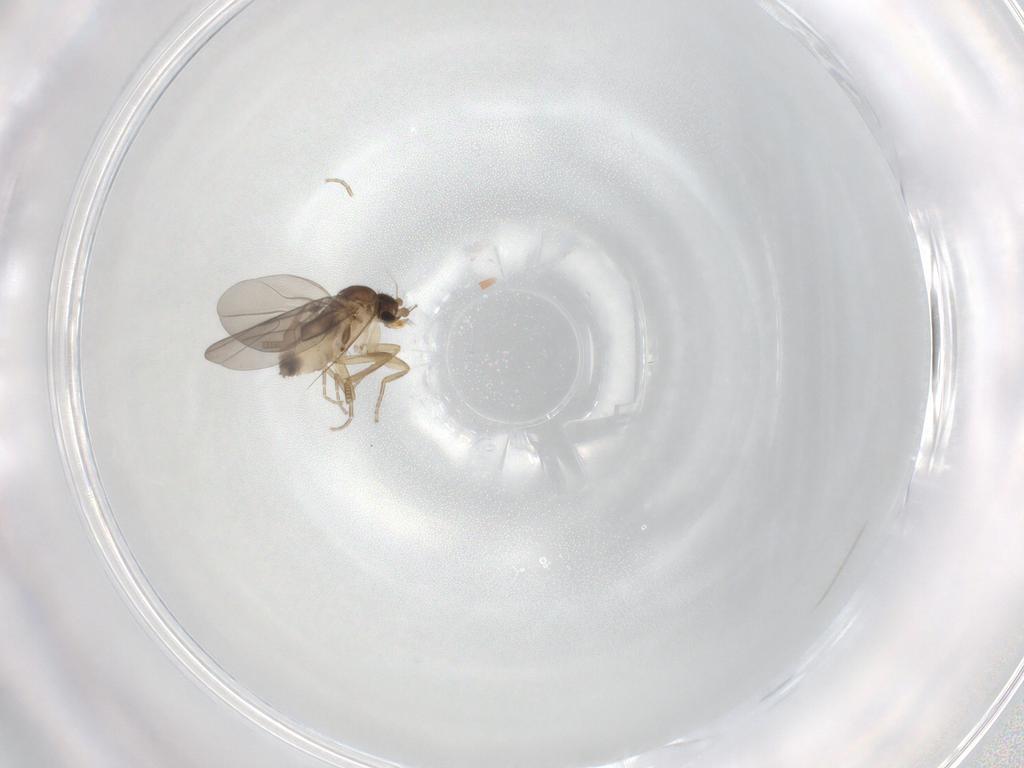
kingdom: Animalia
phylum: Arthropoda
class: Insecta
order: Diptera
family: Phoridae
